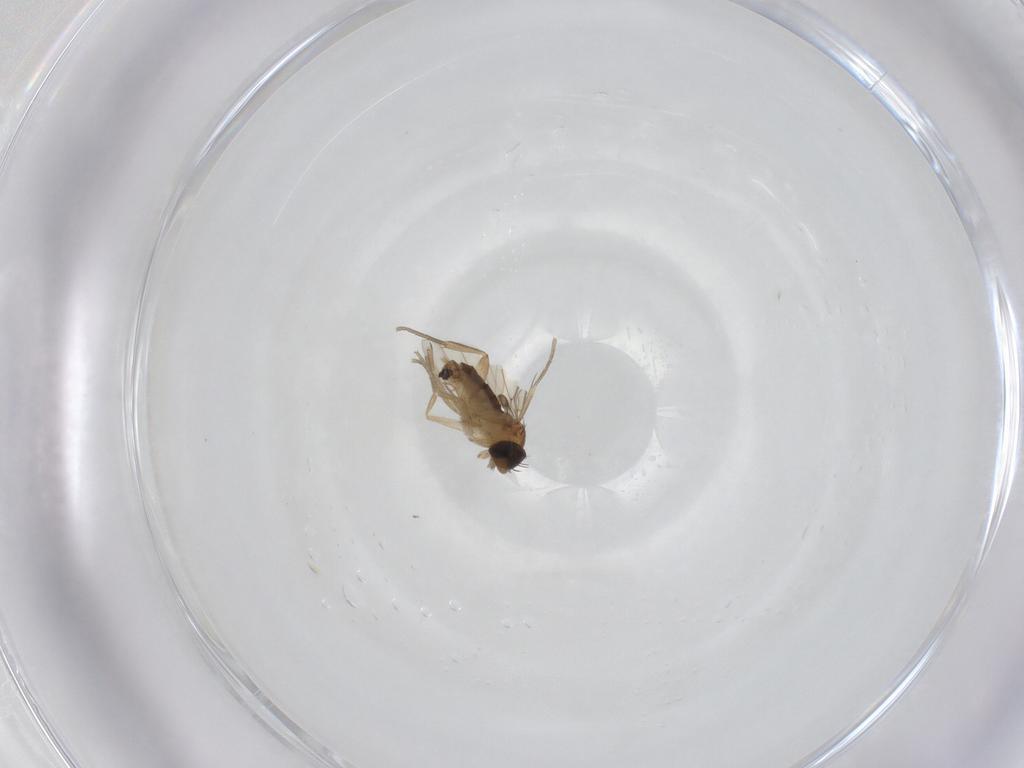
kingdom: Animalia
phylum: Arthropoda
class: Insecta
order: Diptera
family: Phoridae
